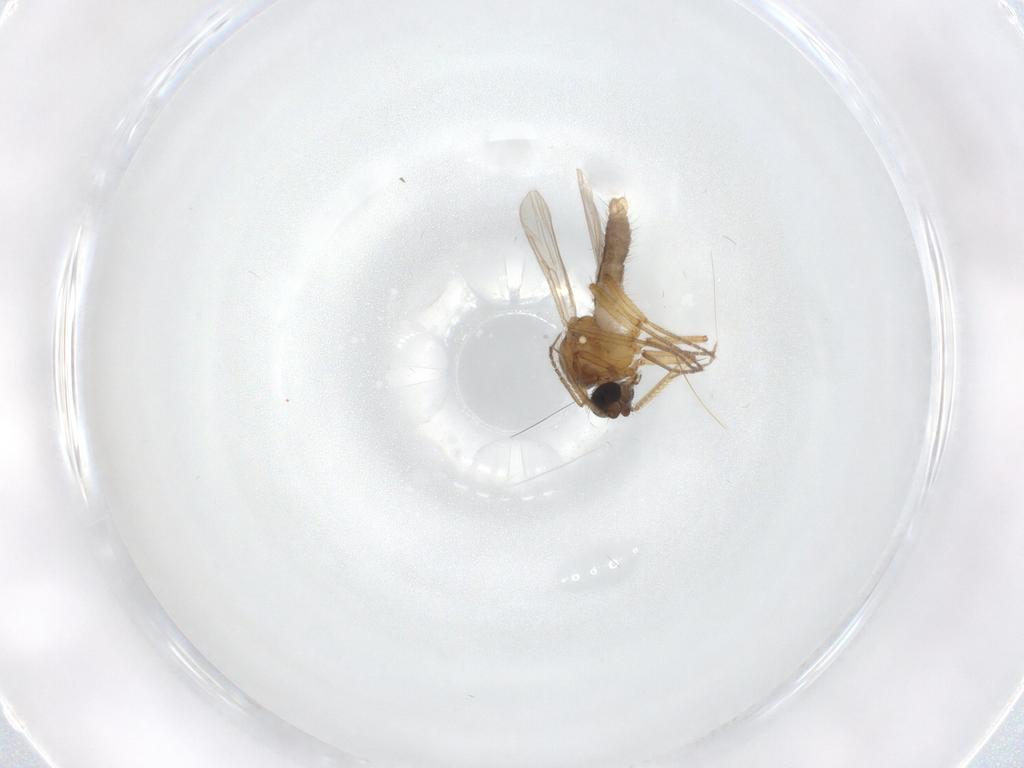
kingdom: Animalia
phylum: Arthropoda
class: Insecta
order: Diptera
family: Ceratopogonidae
